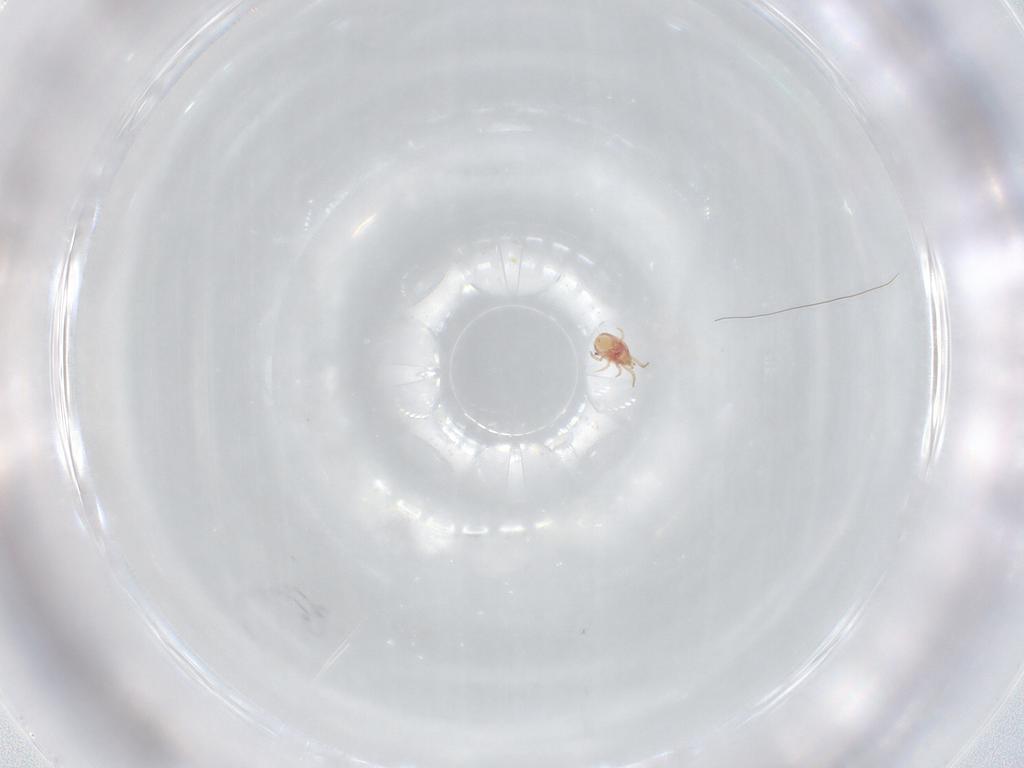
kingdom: Animalia
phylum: Arthropoda
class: Arachnida
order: Mesostigmata
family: Phytoseiidae
